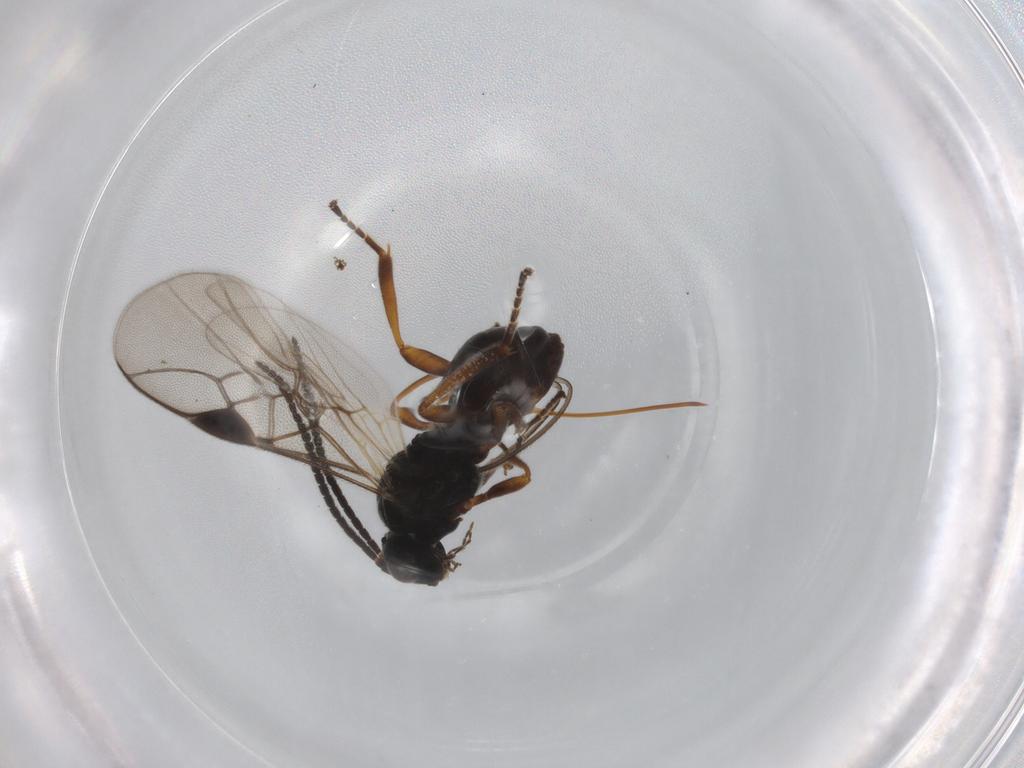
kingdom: Animalia
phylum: Arthropoda
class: Insecta
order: Hymenoptera
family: Braconidae
